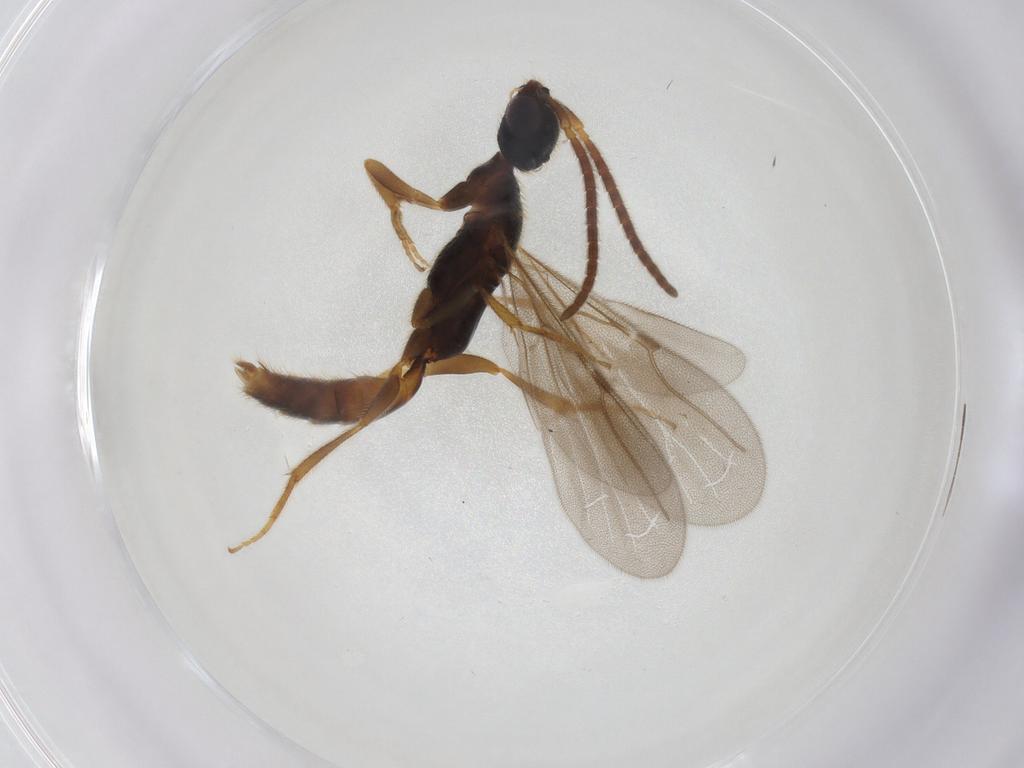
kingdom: Animalia
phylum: Arthropoda
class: Insecta
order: Hymenoptera
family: Bethylidae
